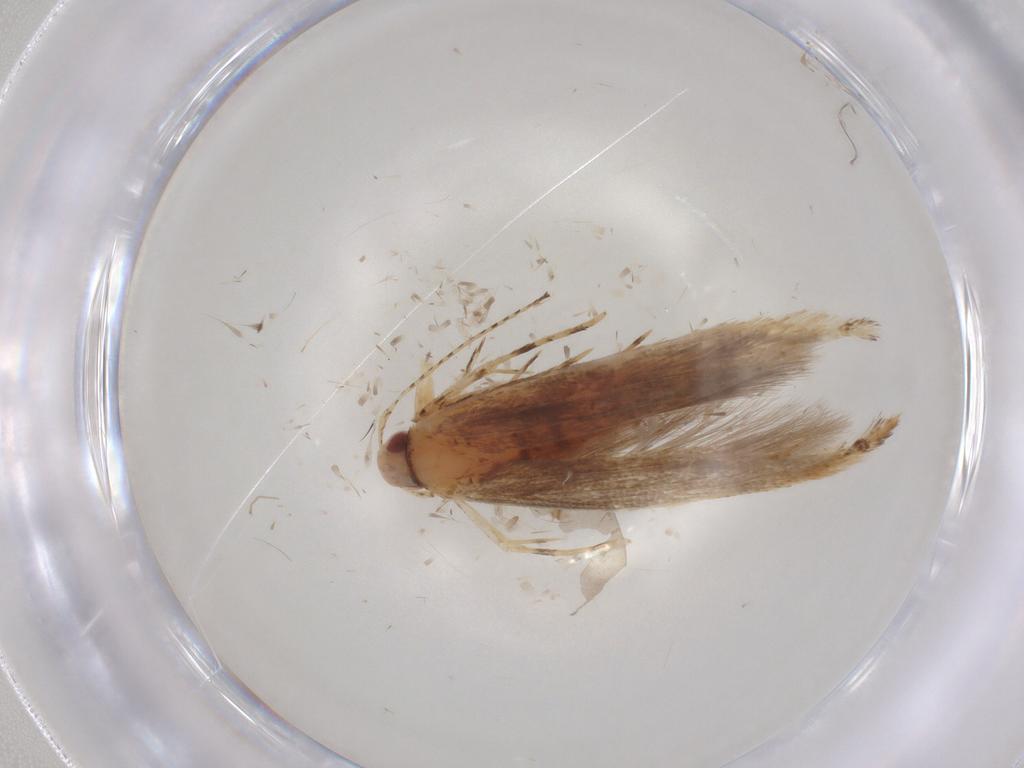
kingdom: Animalia
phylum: Arthropoda
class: Insecta
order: Lepidoptera
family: Cosmopterigidae
